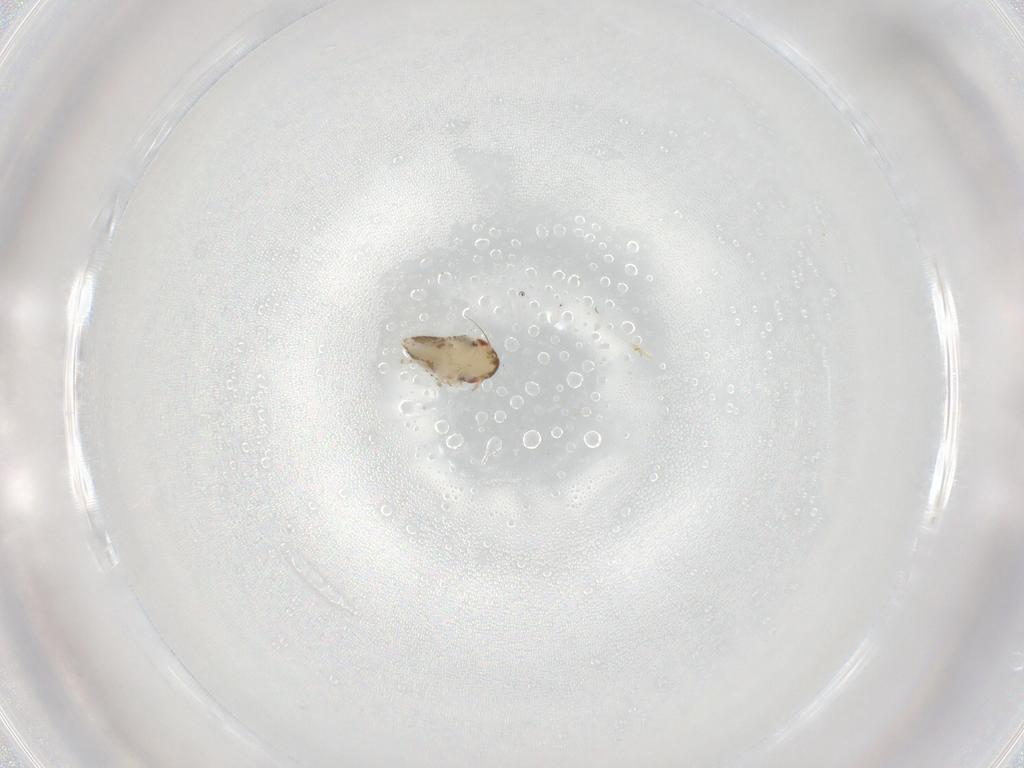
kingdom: Animalia
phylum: Arthropoda
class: Insecta
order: Hemiptera
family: Cicadellidae
